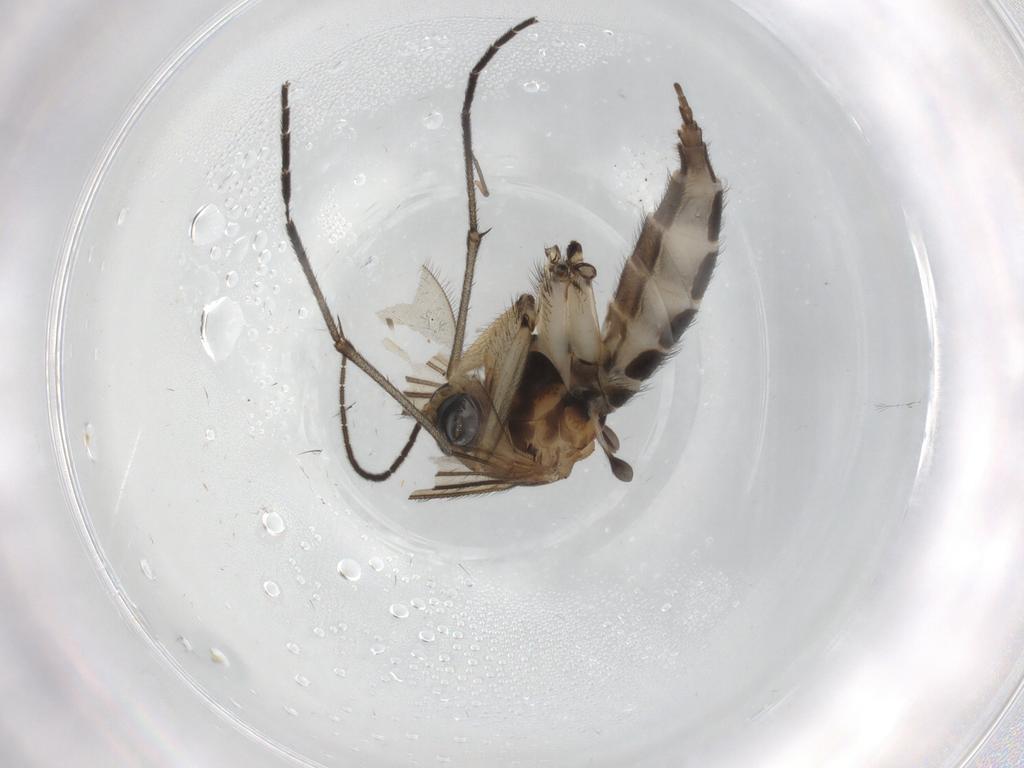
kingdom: Animalia
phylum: Arthropoda
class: Insecta
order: Diptera
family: Sciaridae
